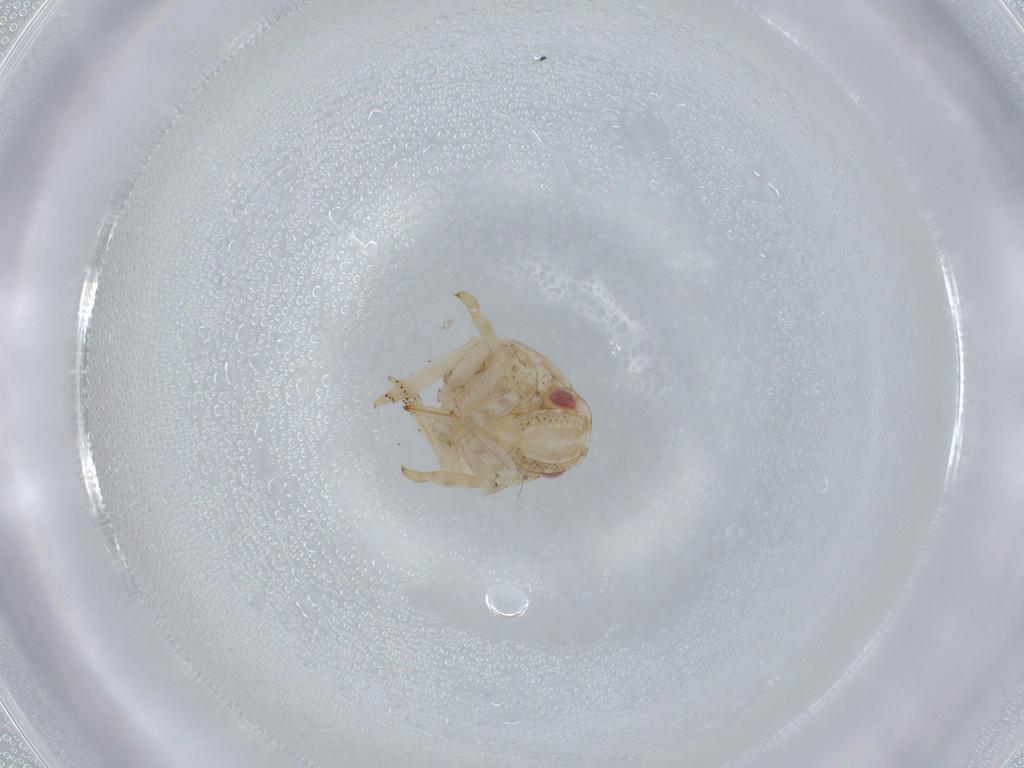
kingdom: Animalia
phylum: Arthropoda
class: Insecta
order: Hemiptera
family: Acanaloniidae
